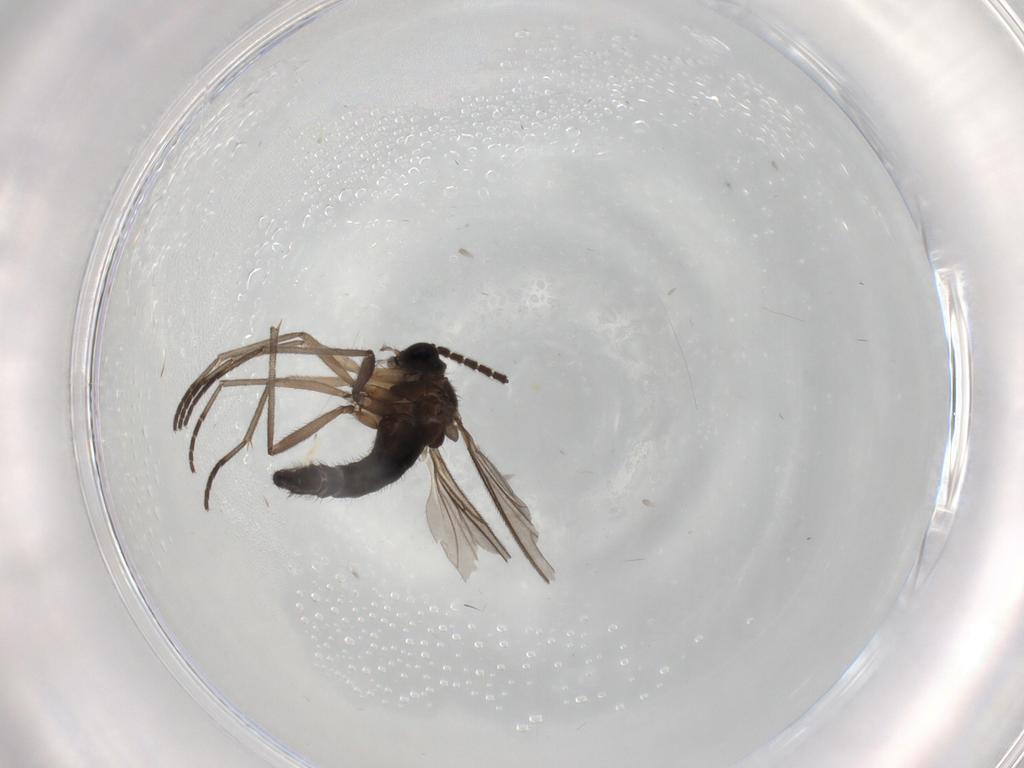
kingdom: Animalia
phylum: Arthropoda
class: Insecta
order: Diptera
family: Sciaridae
